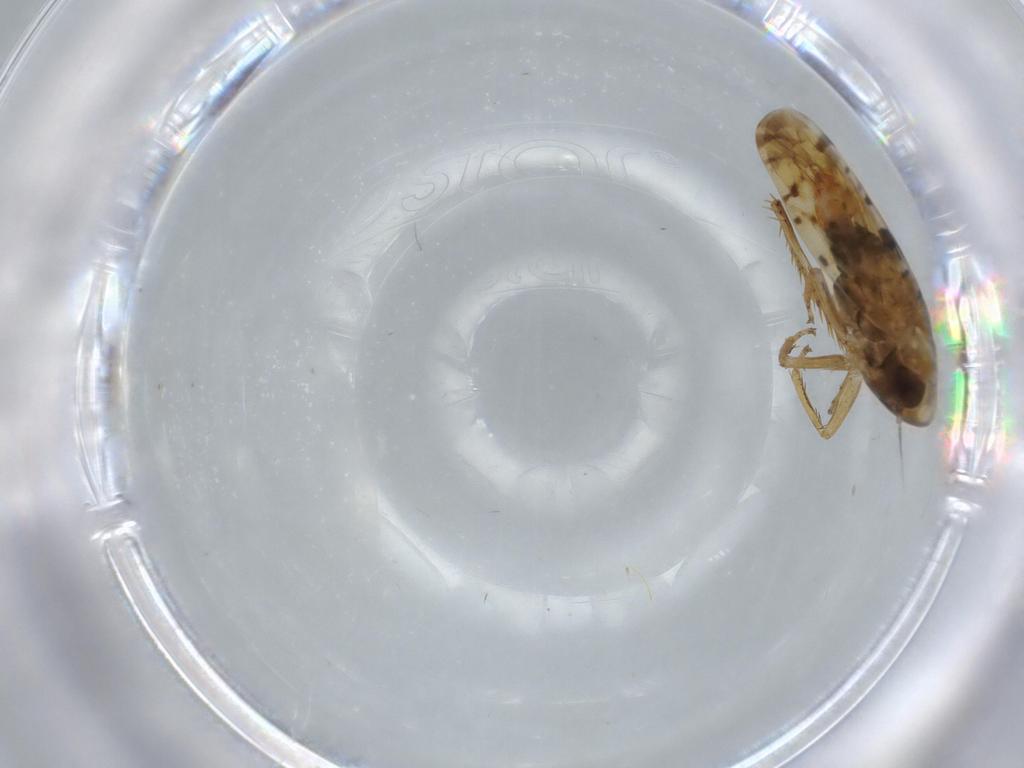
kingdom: Animalia
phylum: Arthropoda
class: Insecta
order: Hemiptera
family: Cicadellidae
